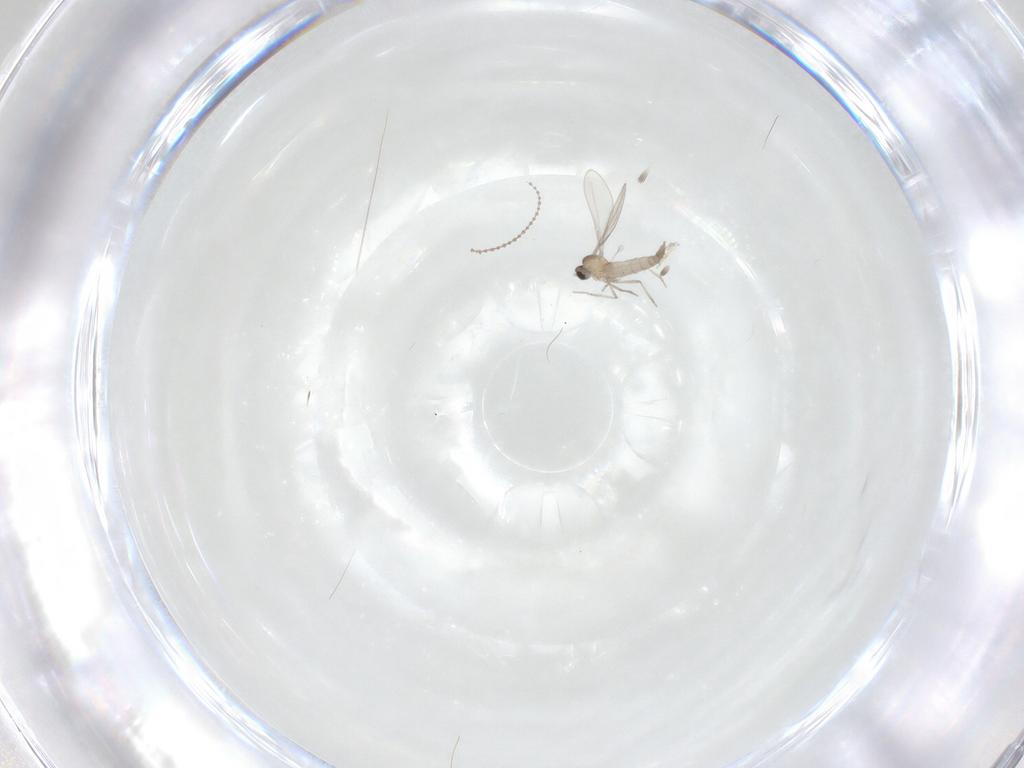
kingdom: Animalia
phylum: Arthropoda
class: Insecta
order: Diptera
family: Cecidomyiidae
